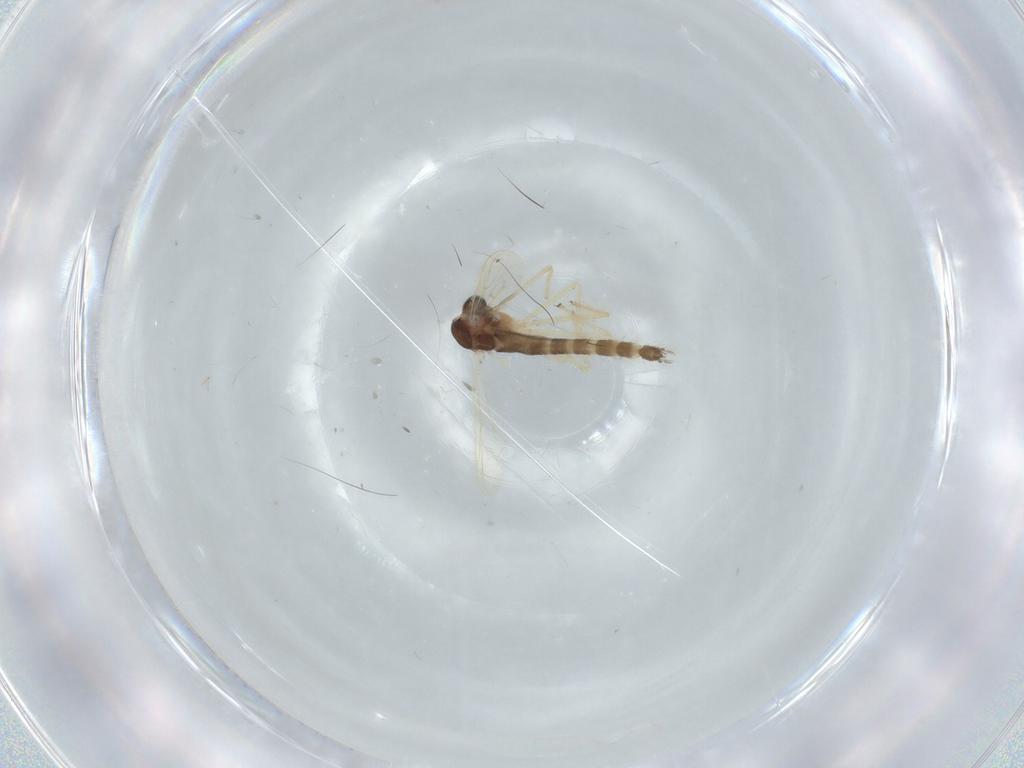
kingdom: Animalia
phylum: Arthropoda
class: Insecta
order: Diptera
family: Chironomidae
